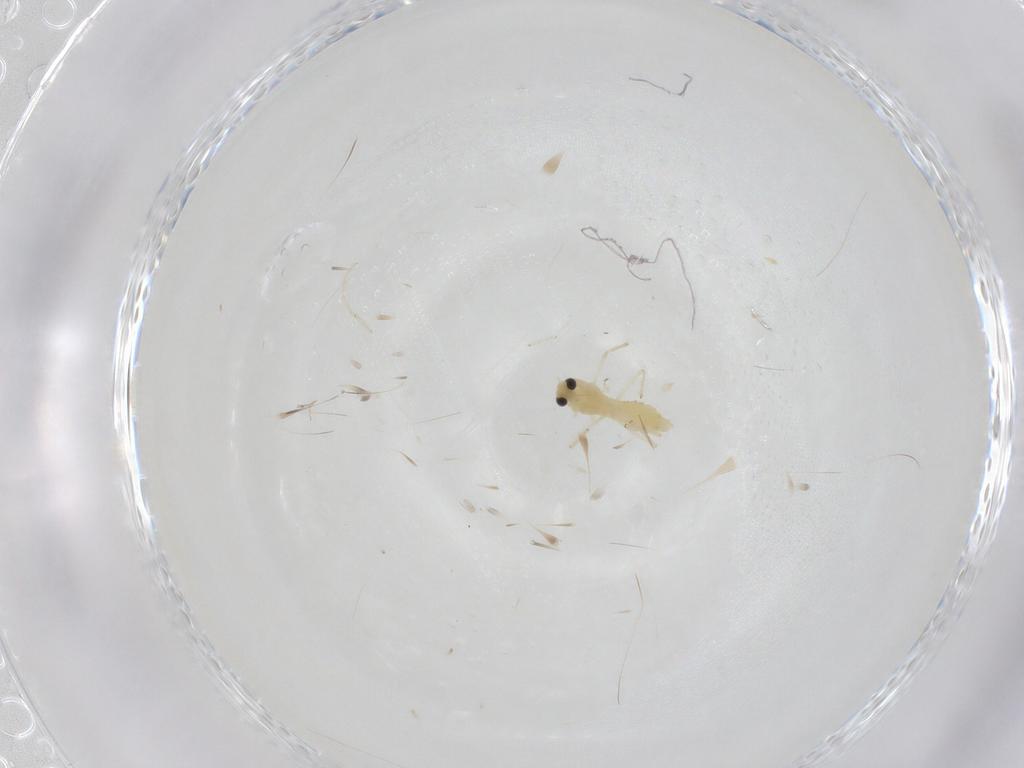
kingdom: Animalia
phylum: Arthropoda
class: Insecta
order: Diptera
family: Chironomidae
